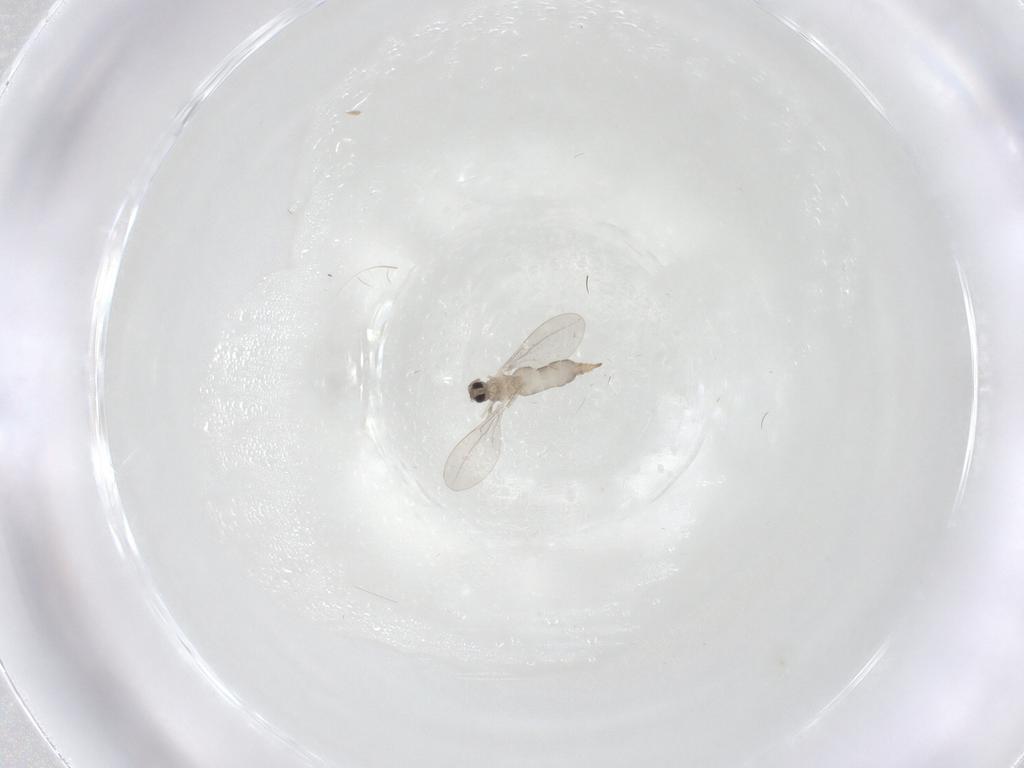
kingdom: Animalia
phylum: Arthropoda
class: Insecta
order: Diptera
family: Cecidomyiidae
